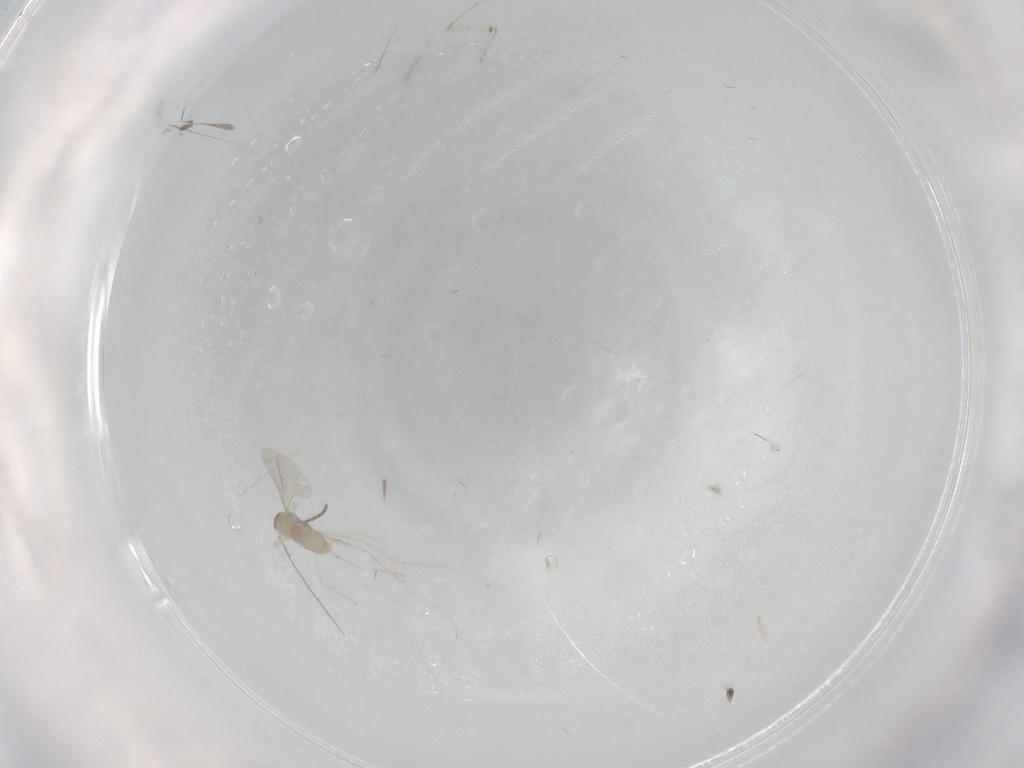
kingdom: Animalia
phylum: Arthropoda
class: Insecta
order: Diptera
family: Cecidomyiidae
